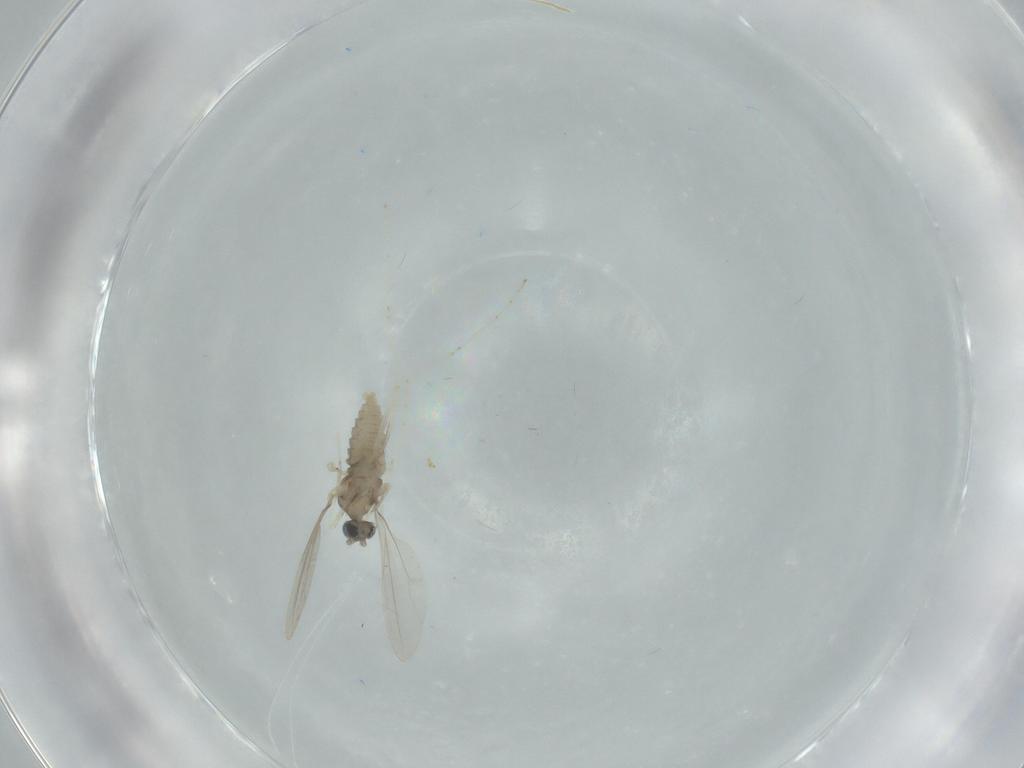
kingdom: Animalia
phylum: Arthropoda
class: Insecta
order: Diptera
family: Cecidomyiidae
